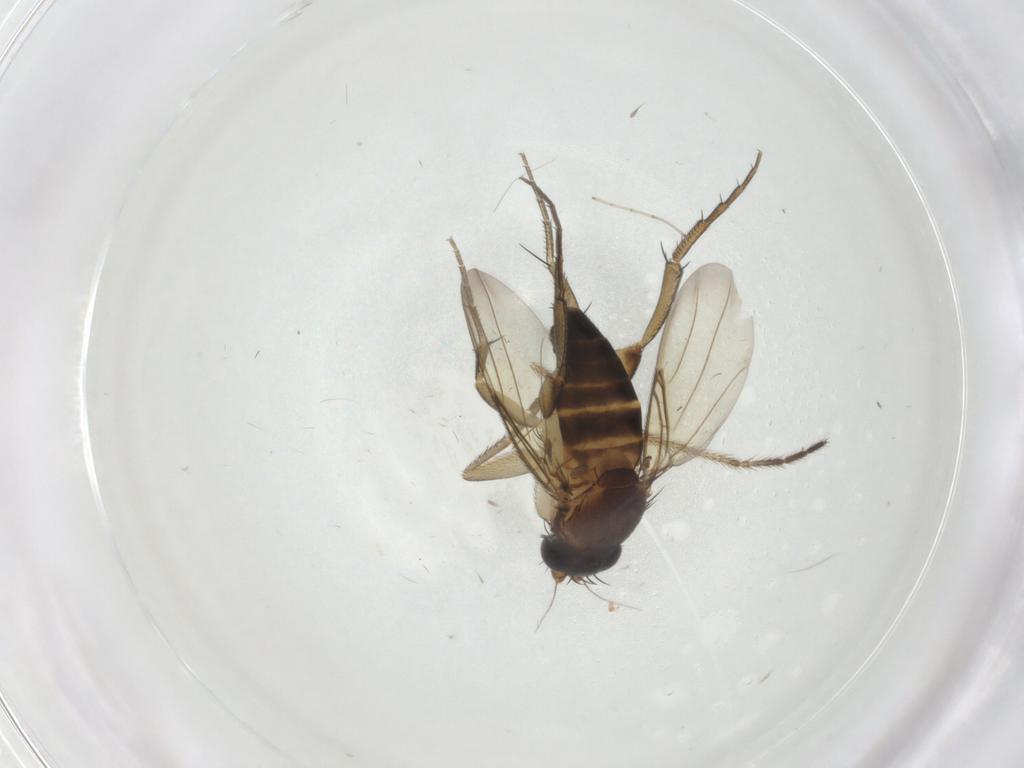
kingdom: Animalia
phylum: Arthropoda
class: Insecta
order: Diptera
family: Phoridae
